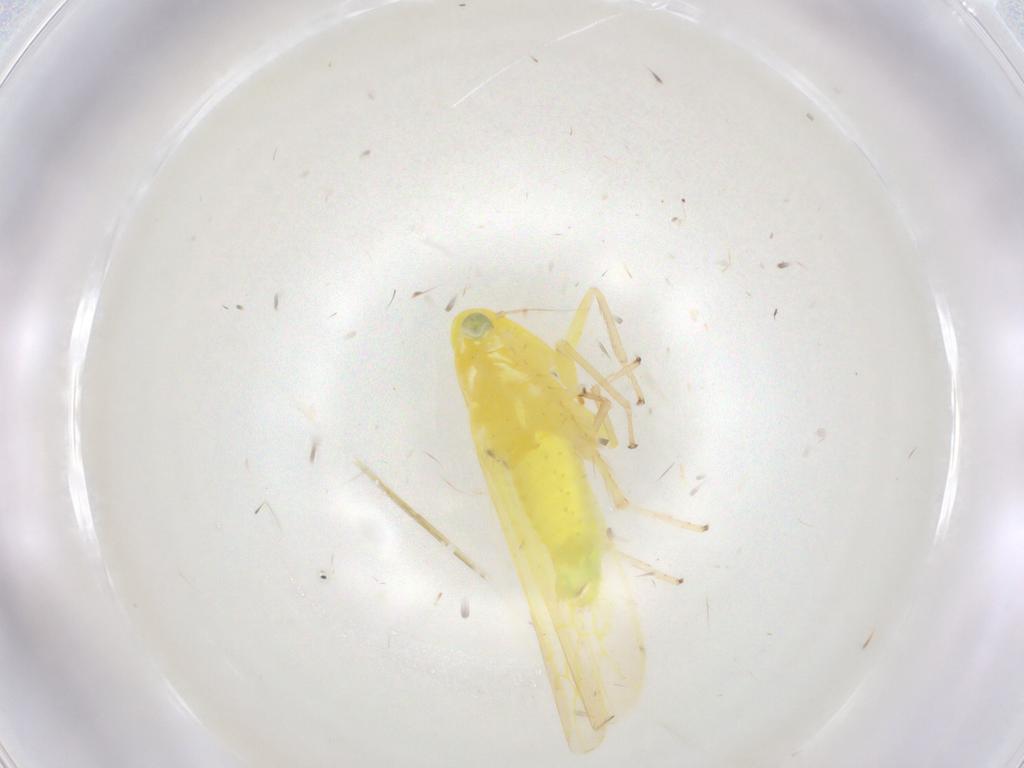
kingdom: Animalia
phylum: Arthropoda
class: Insecta
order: Hemiptera
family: Cicadellidae
